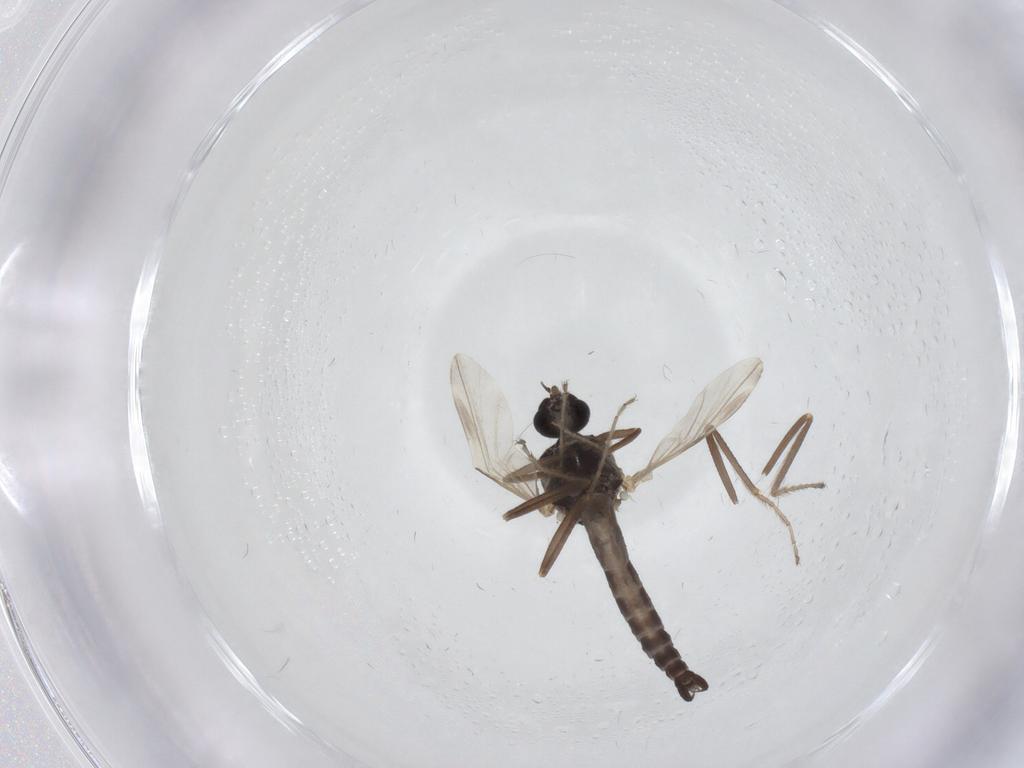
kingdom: Animalia
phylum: Arthropoda
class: Insecta
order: Diptera
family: Ceratopogonidae
